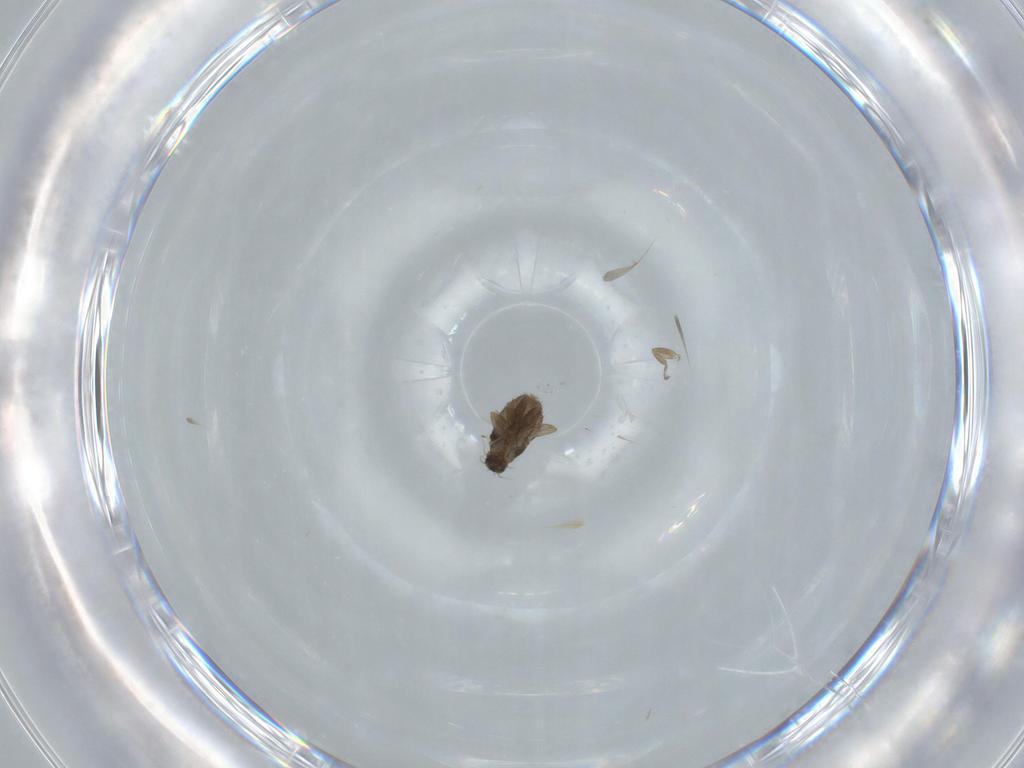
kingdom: Animalia
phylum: Arthropoda
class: Insecta
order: Diptera
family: Phoridae
